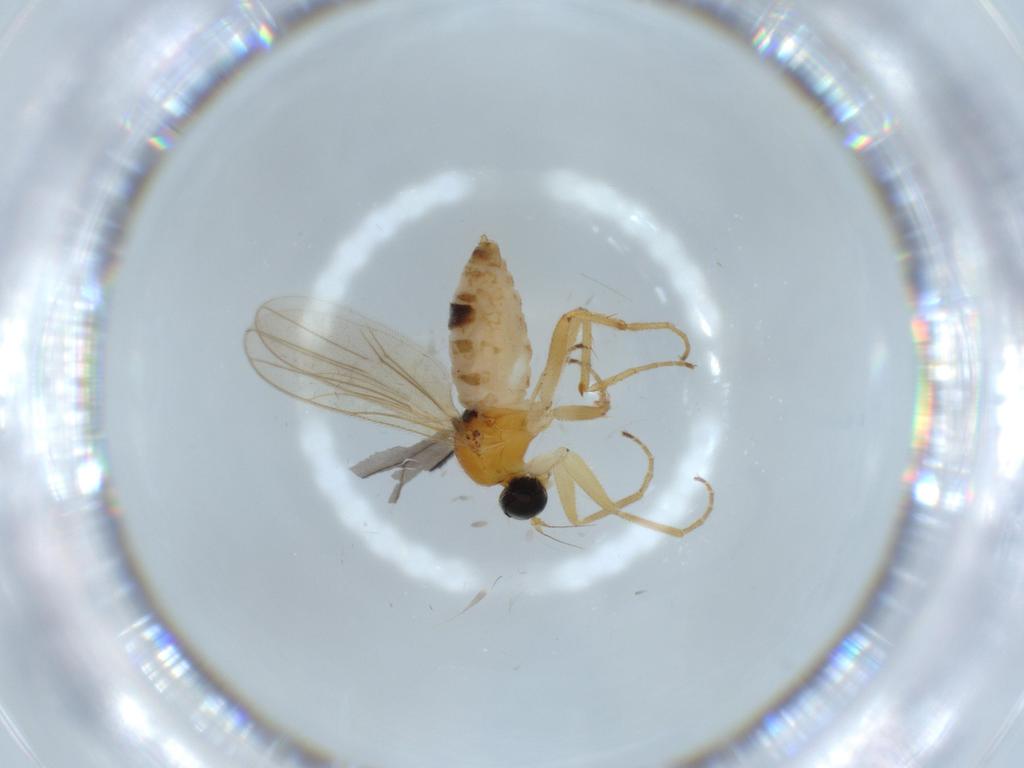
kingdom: Animalia
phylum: Arthropoda
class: Insecta
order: Diptera
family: Hybotidae
